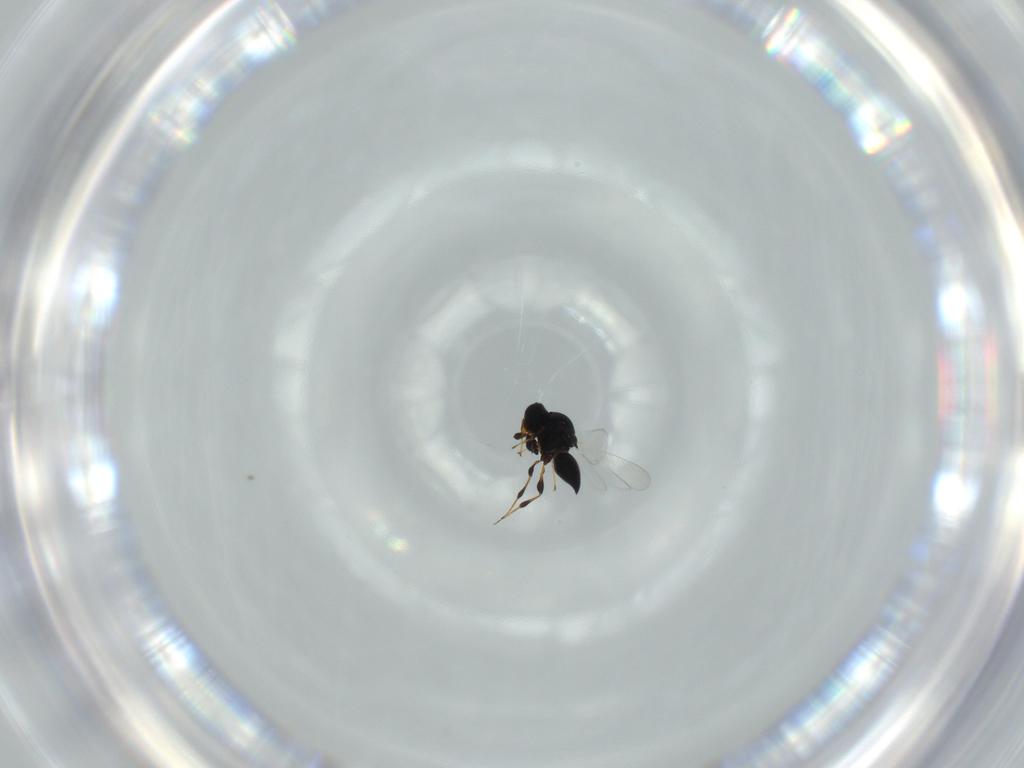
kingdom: Animalia
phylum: Arthropoda
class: Insecta
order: Hymenoptera
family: Platygastridae
